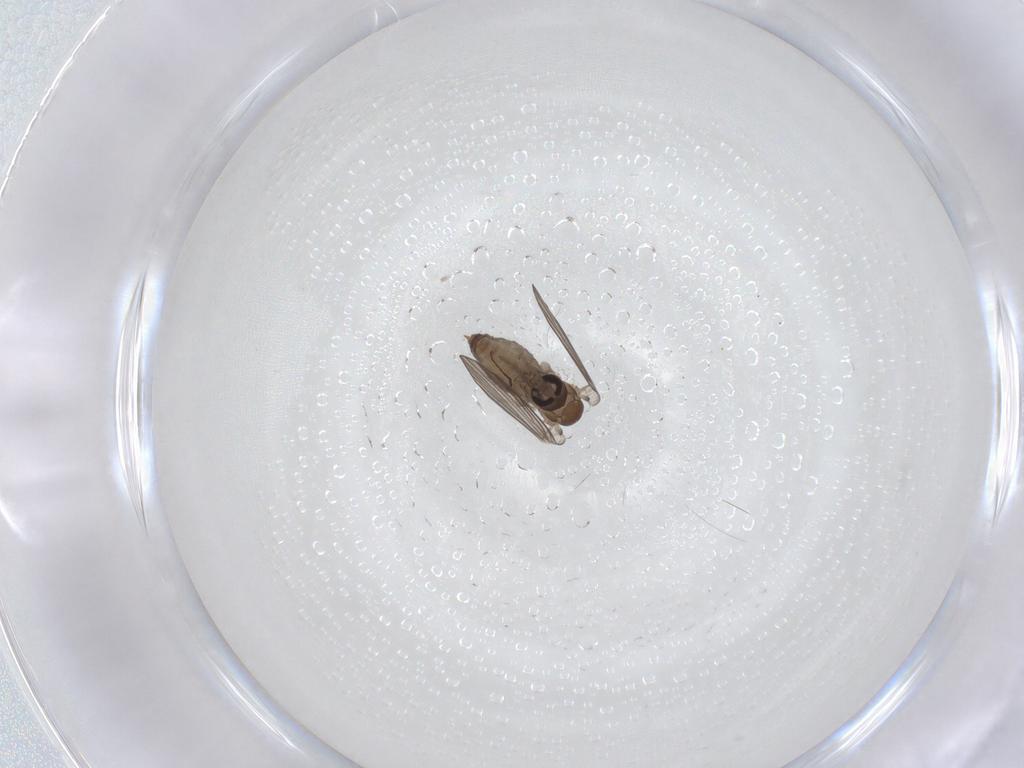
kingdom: Animalia
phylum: Arthropoda
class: Insecta
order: Diptera
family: Psychodidae
